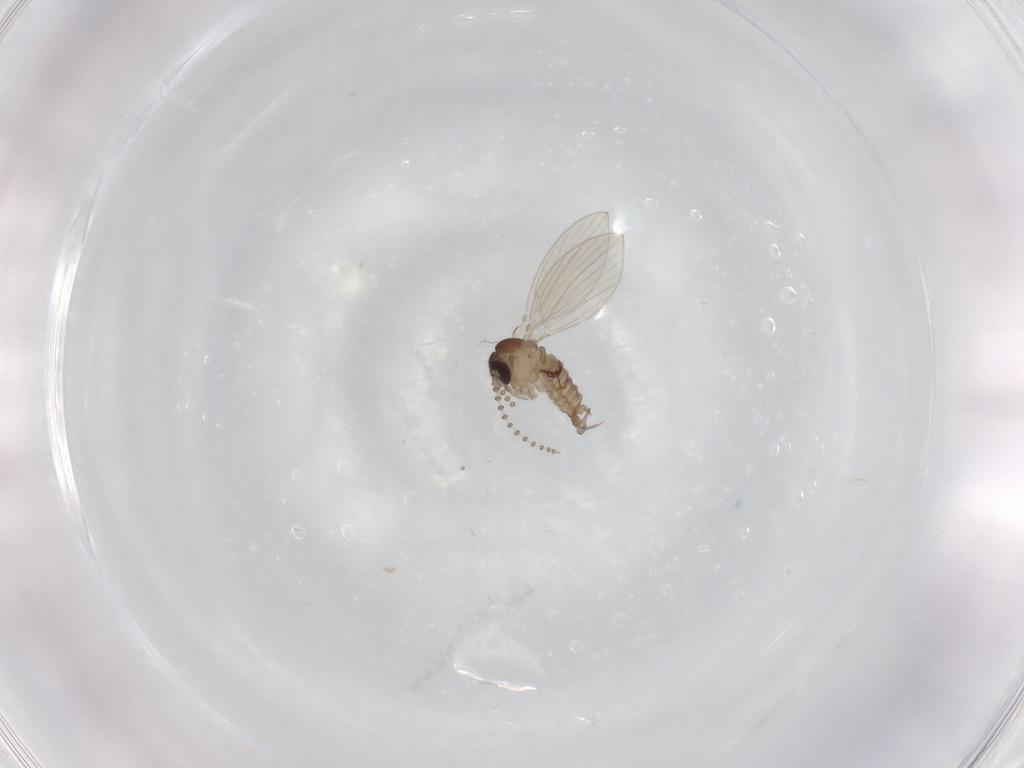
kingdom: Animalia
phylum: Arthropoda
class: Insecta
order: Diptera
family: Psychodidae
